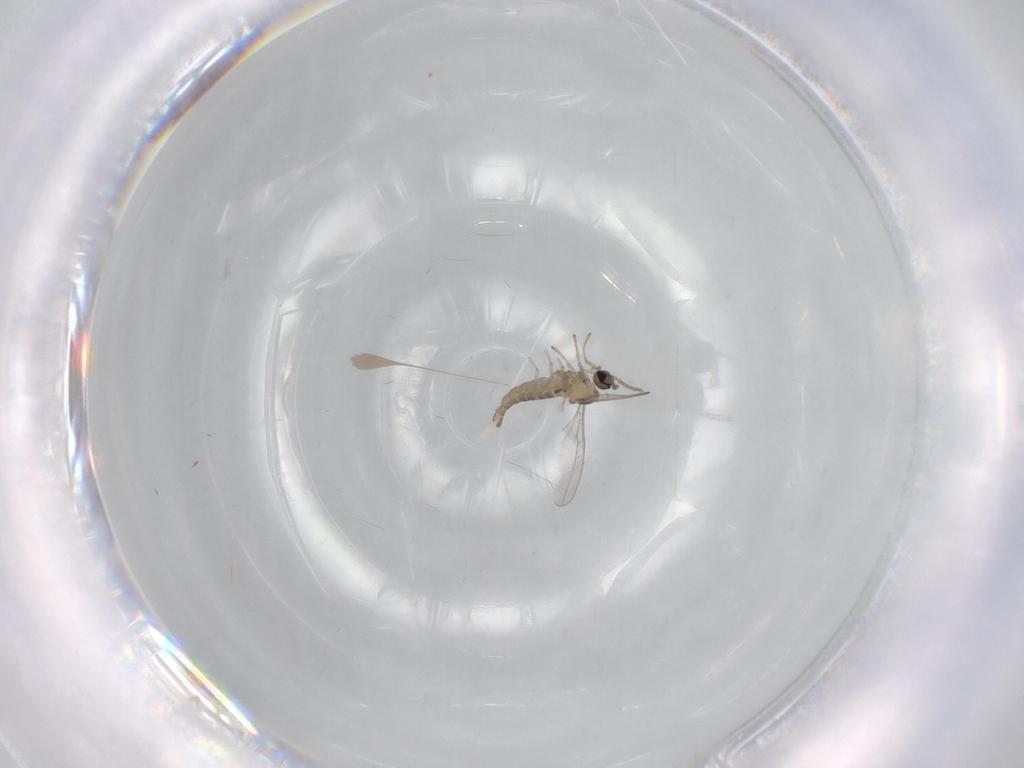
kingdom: Animalia
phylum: Arthropoda
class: Insecta
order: Diptera
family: Cecidomyiidae
